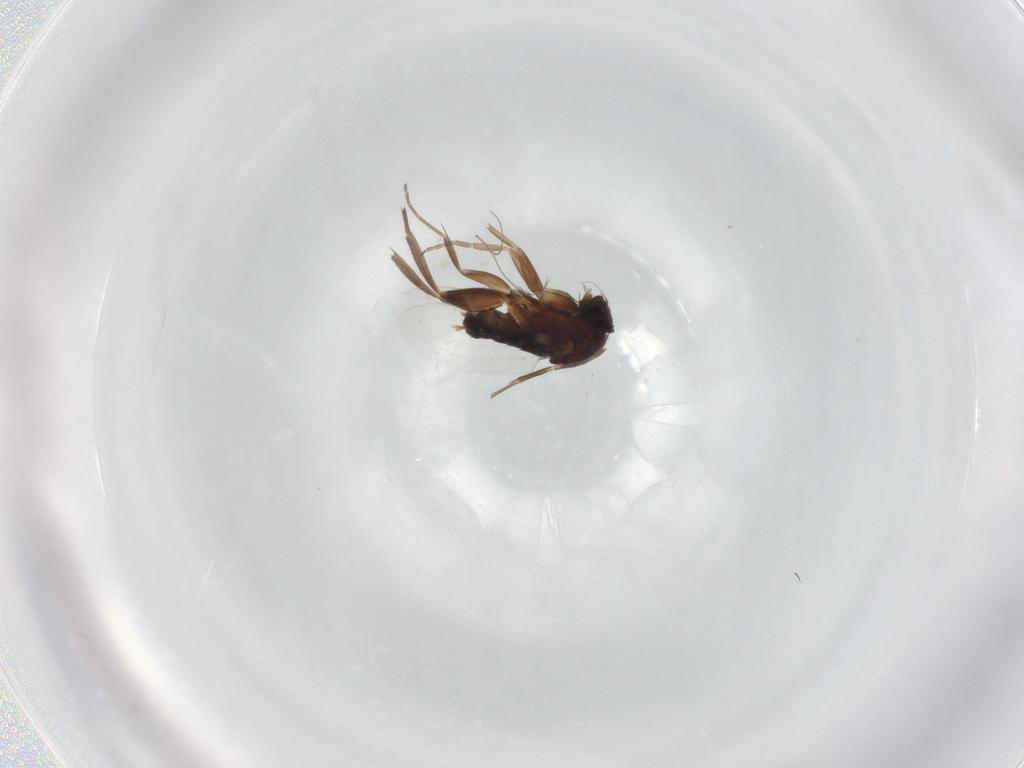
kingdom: Animalia
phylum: Arthropoda
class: Insecta
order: Diptera
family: Phoridae
